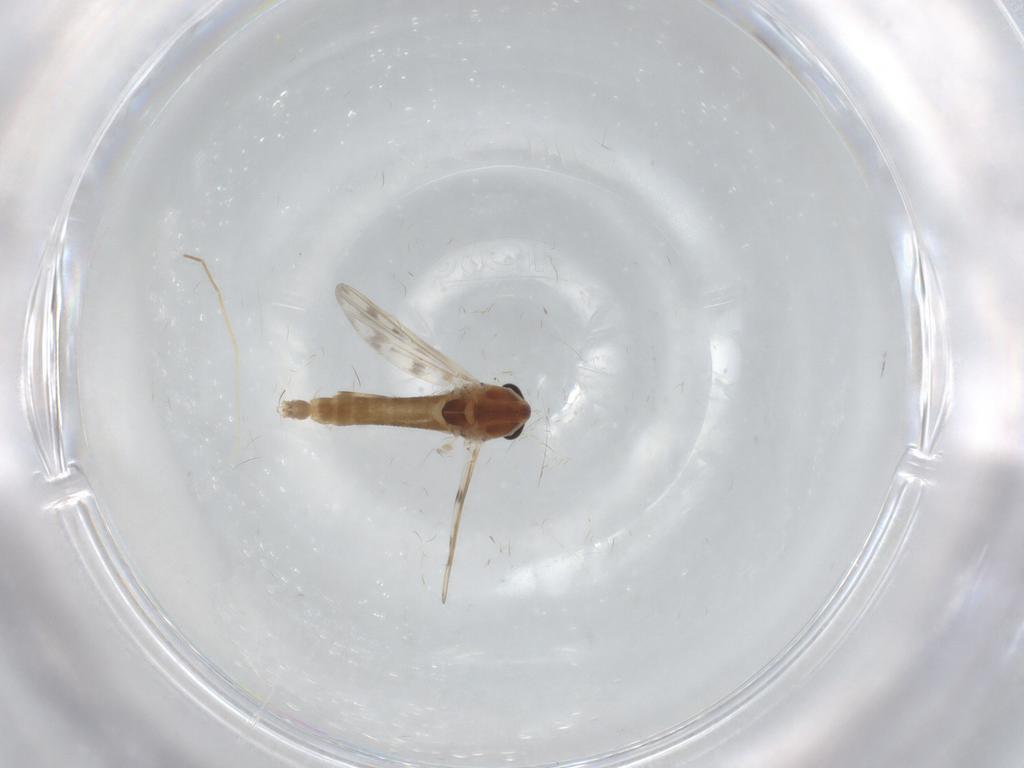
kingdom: Animalia
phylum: Arthropoda
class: Insecta
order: Diptera
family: Chironomidae
